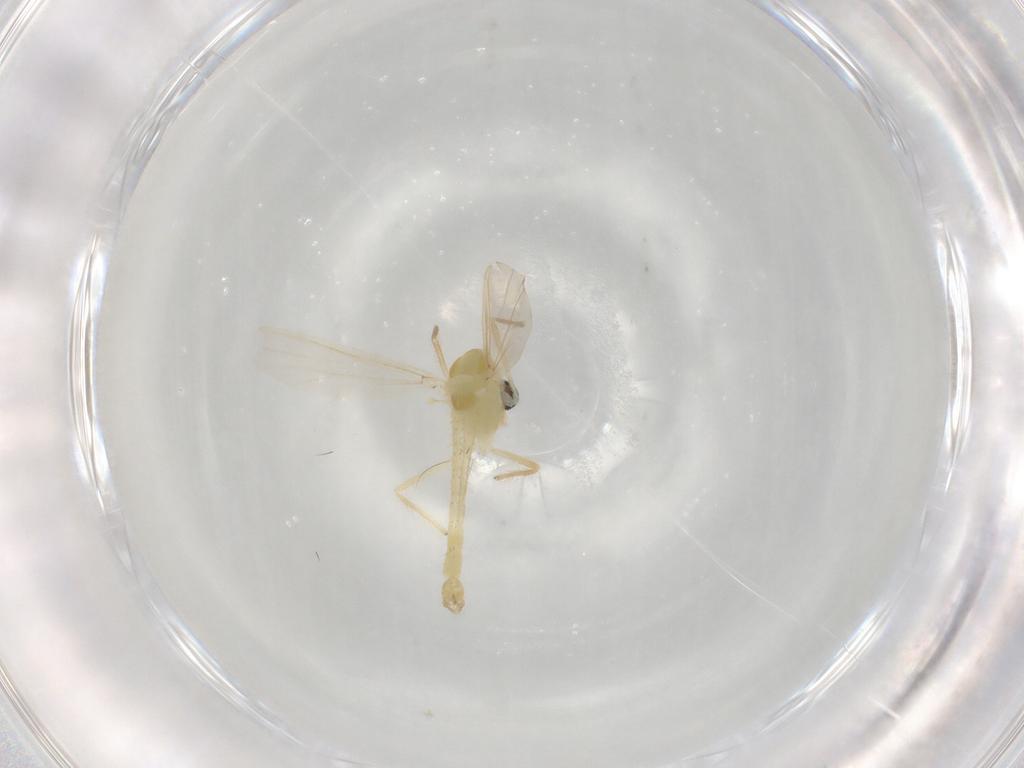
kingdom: Animalia
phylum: Arthropoda
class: Insecta
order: Diptera
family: Chironomidae
